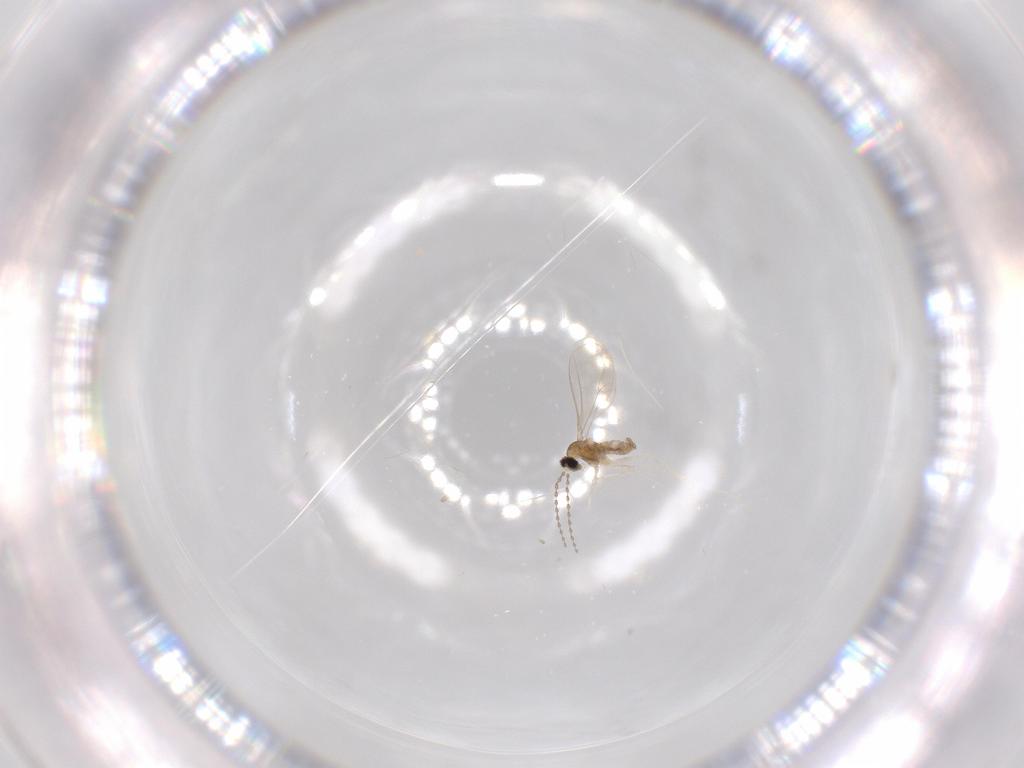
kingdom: Animalia
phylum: Arthropoda
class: Insecta
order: Diptera
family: Cecidomyiidae
